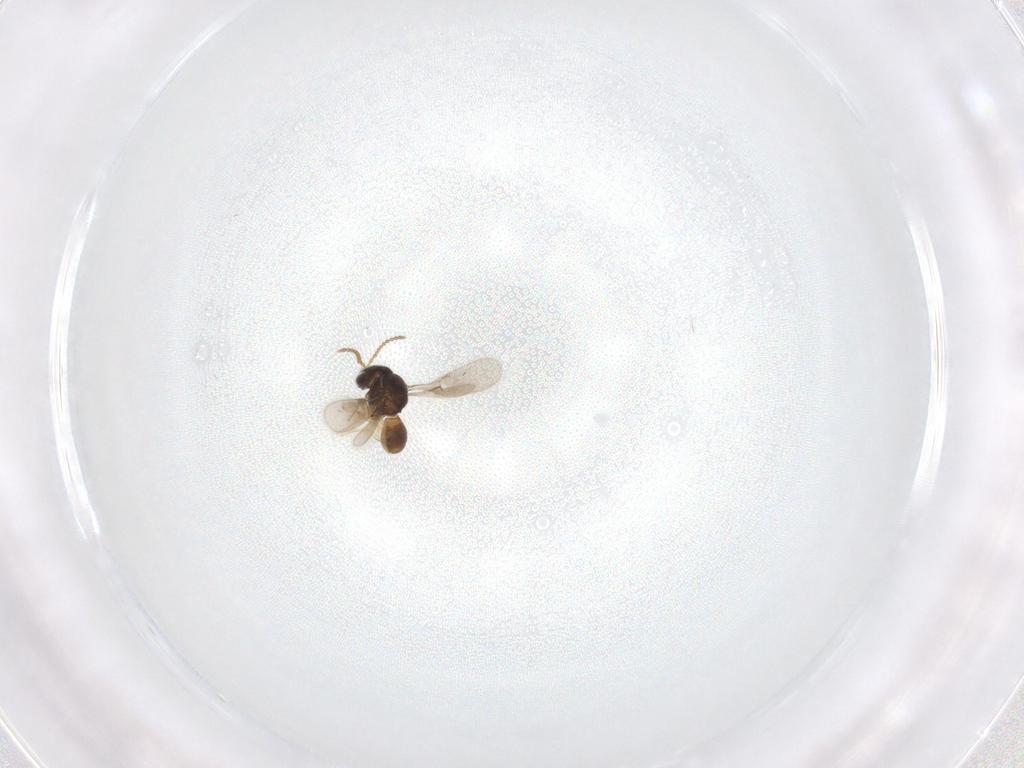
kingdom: Animalia
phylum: Arthropoda
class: Insecta
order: Hymenoptera
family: Scelionidae
